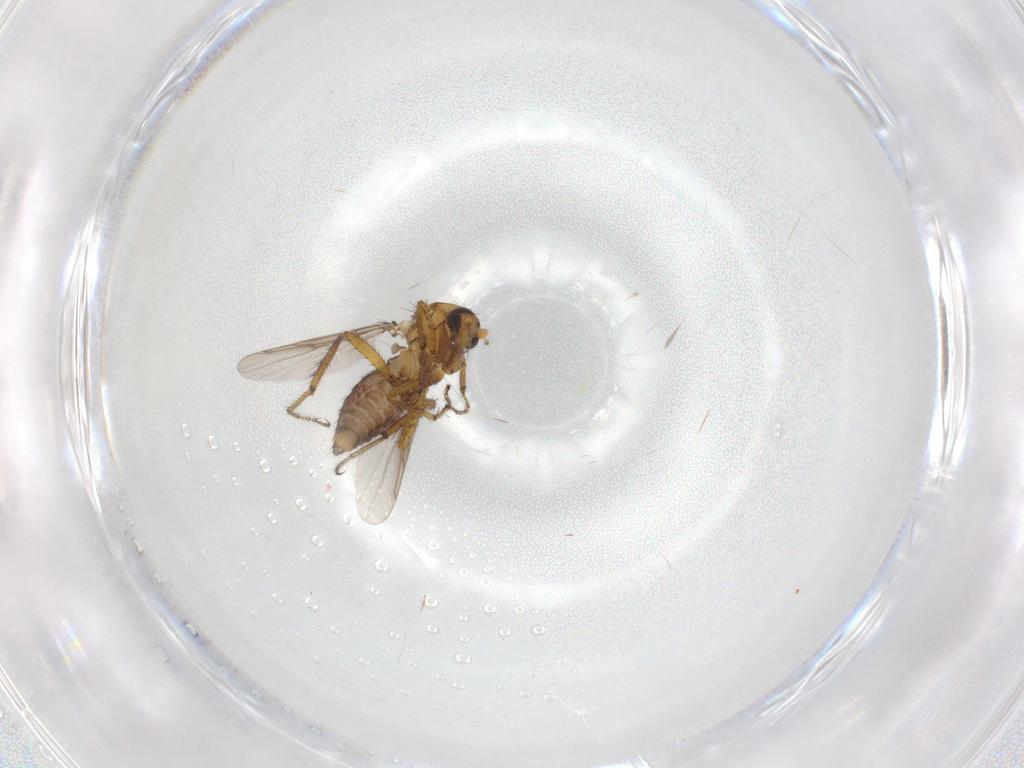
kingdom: Animalia
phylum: Arthropoda
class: Insecta
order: Diptera
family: Ceratopogonidae
